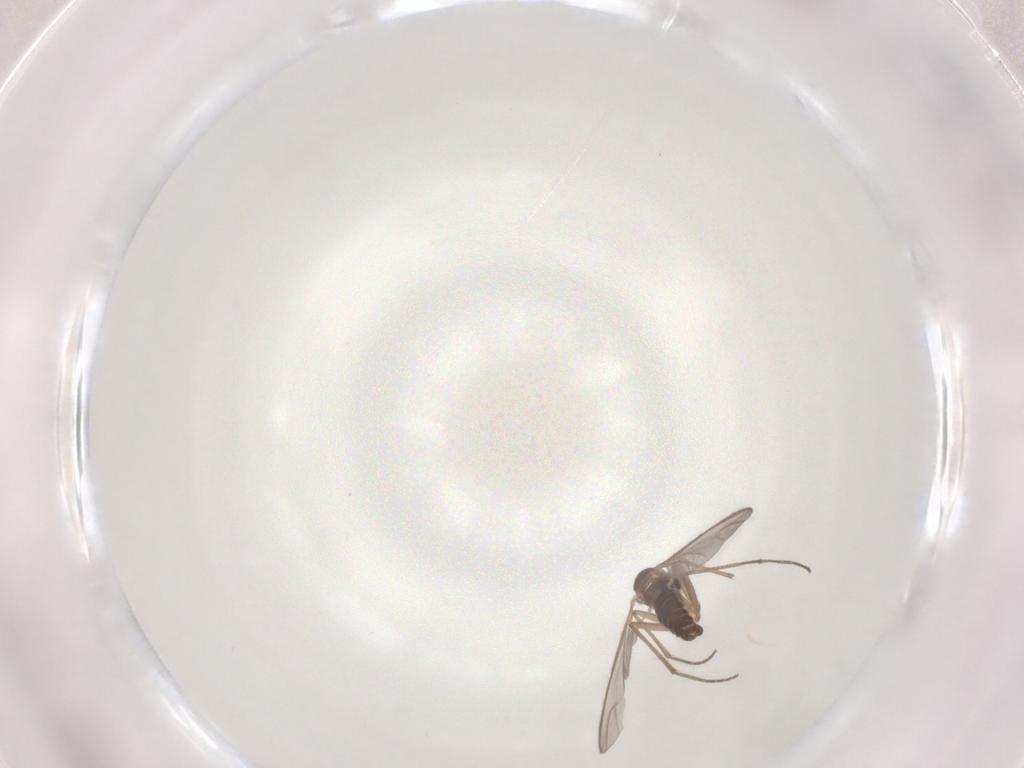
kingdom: Animalia
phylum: Arthropoda
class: Insecta
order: Diptera
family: Sciaridae
